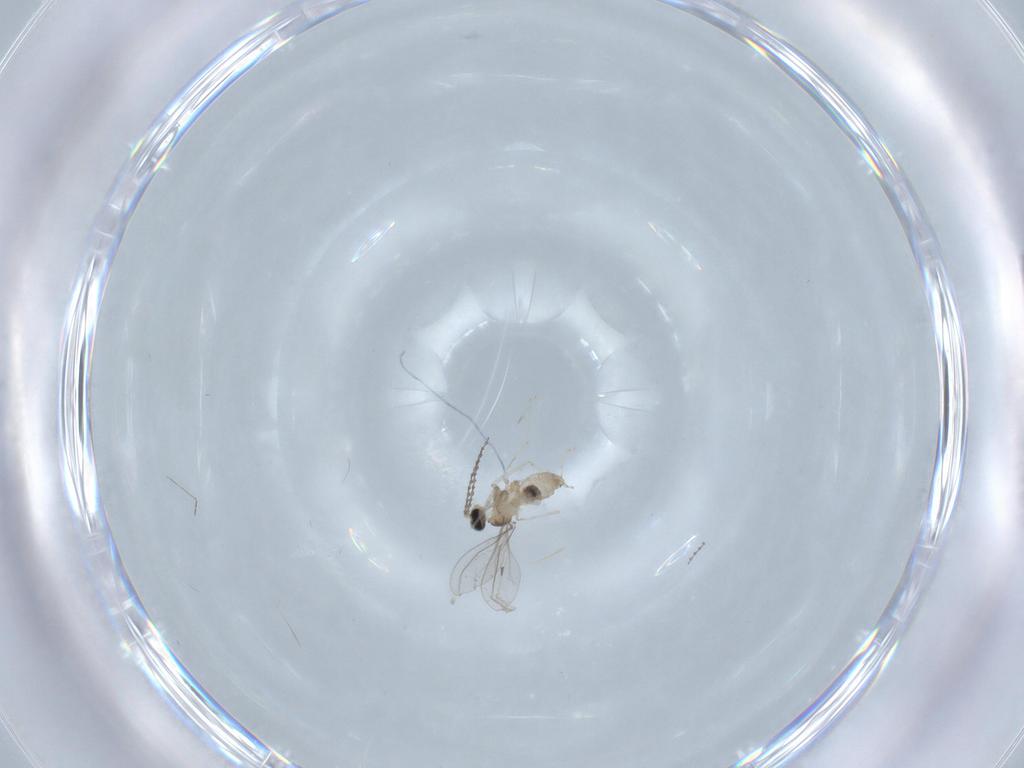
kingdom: Animalia
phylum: Arthropoda
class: Insecta
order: Diptera
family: Cecidomyiidae
